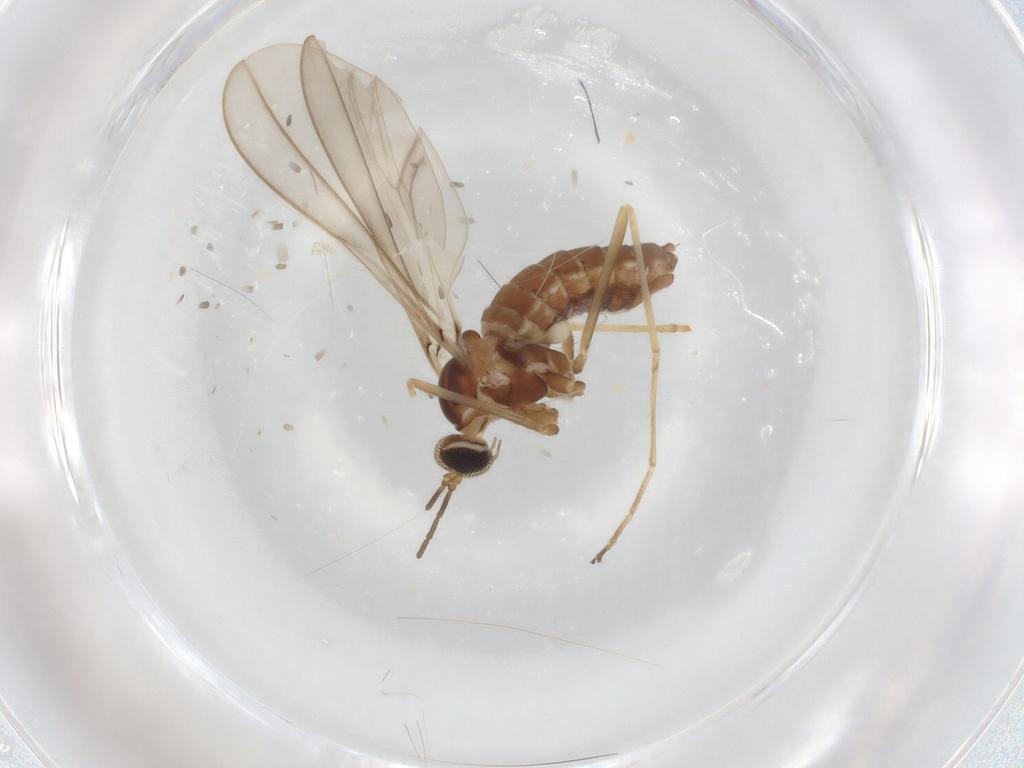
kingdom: Animalia
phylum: Arthropoda
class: Insecta
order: Diptera
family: Cecidomyiidae
